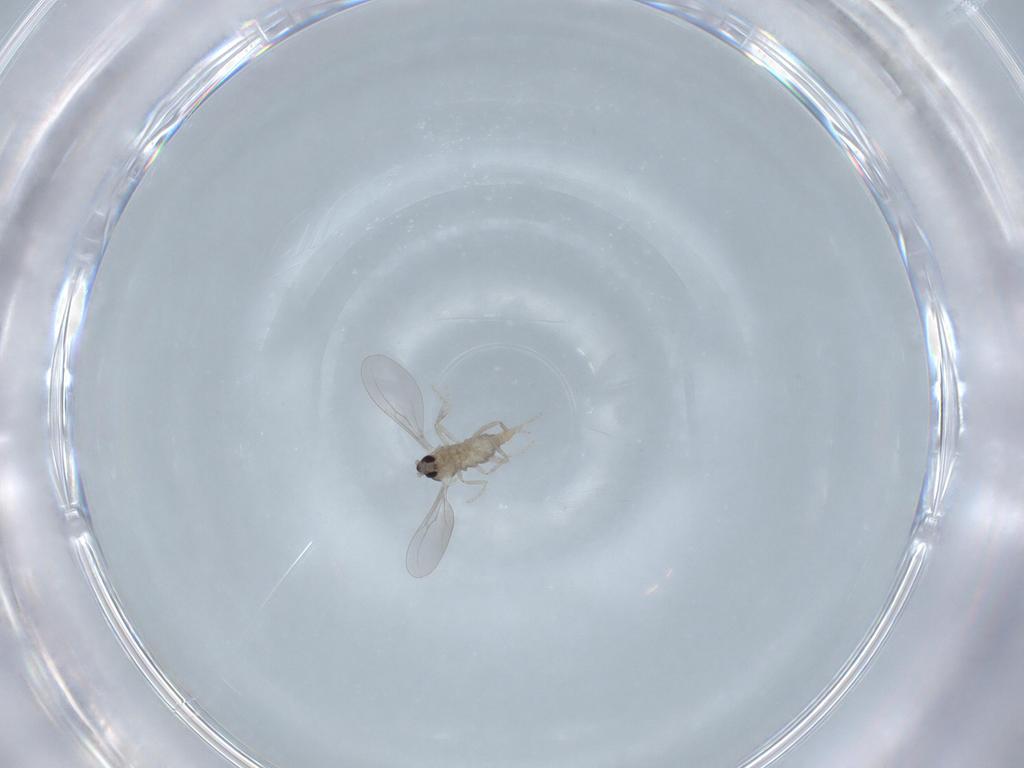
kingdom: Animalia
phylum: Arthropoda
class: Insecta
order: Diptera
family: Cecidomyiidae
